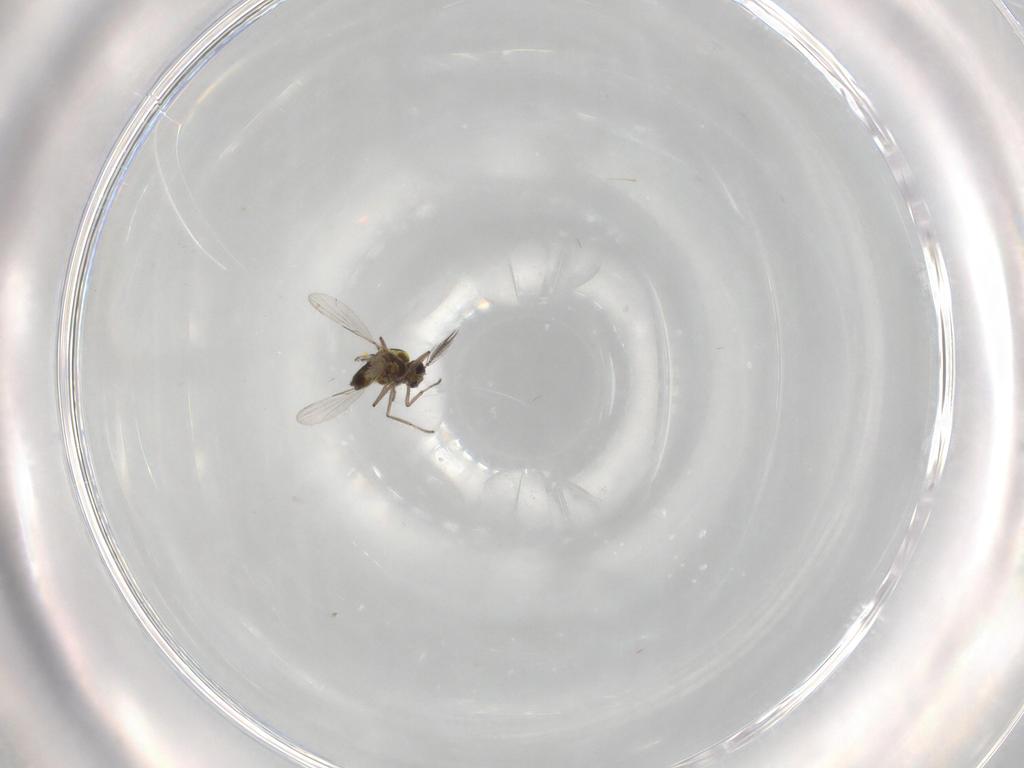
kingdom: Animalia
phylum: Arthropoda
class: Insecta
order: Diptera
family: Ceratopogonidae
